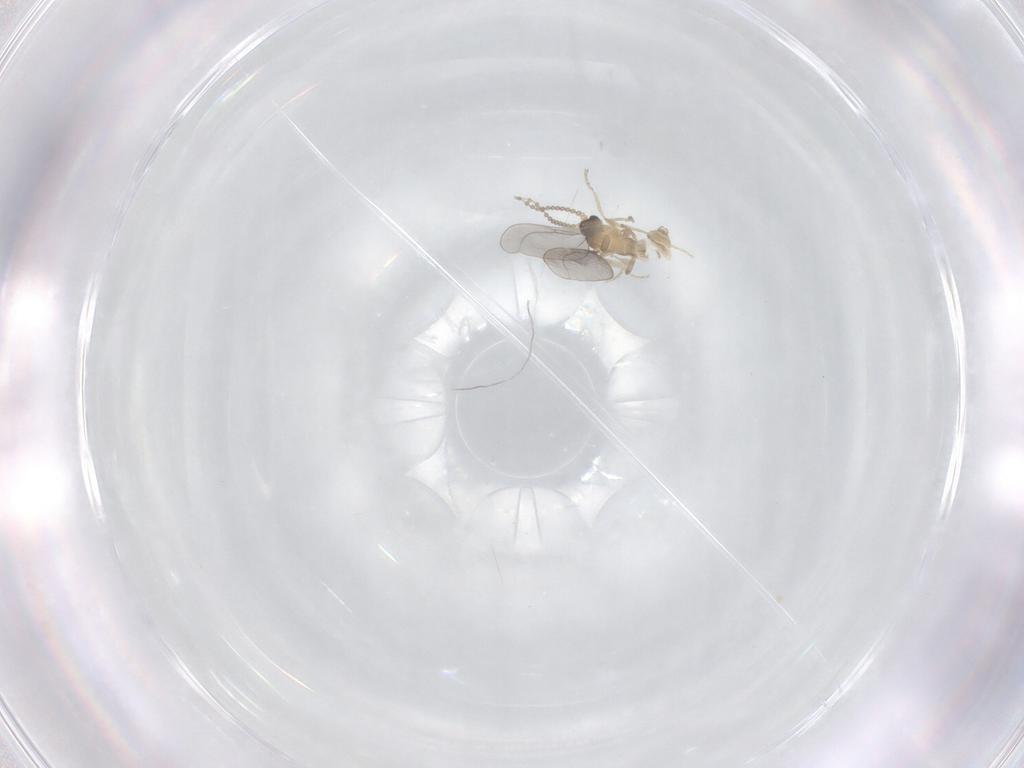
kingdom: Animalia
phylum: Arthropoda
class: Insecta
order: Diptera
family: Cecidomyiidae
